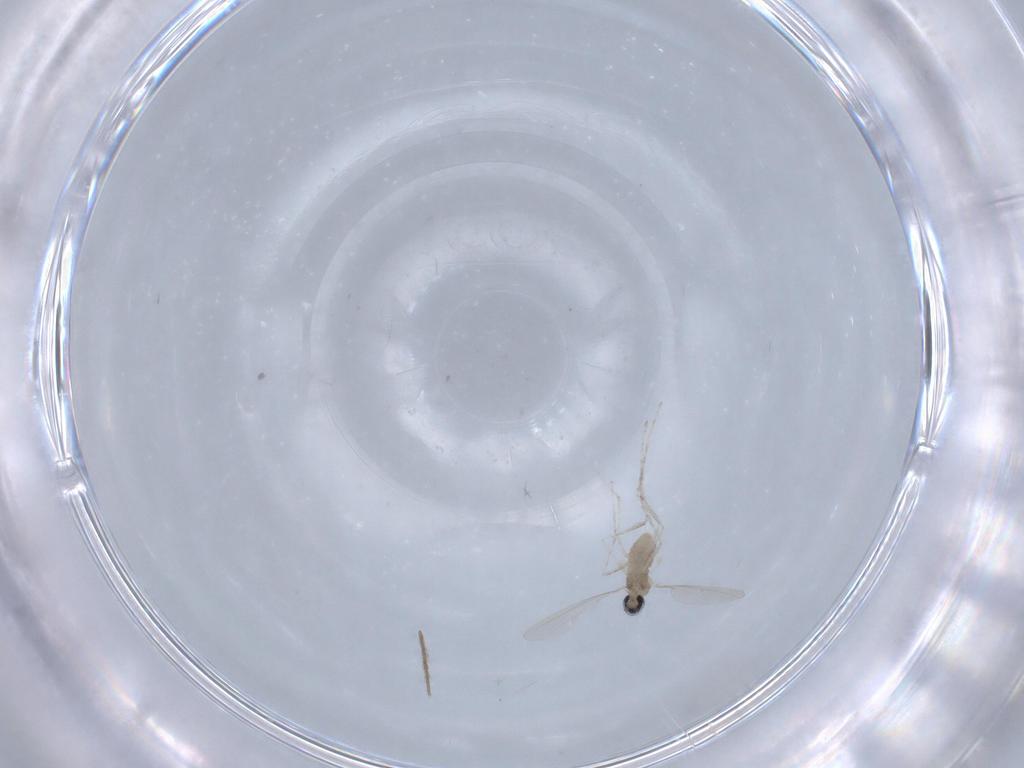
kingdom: Animalia
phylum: Arthropoda
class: Insecta
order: Diptera
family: Chironomidae
